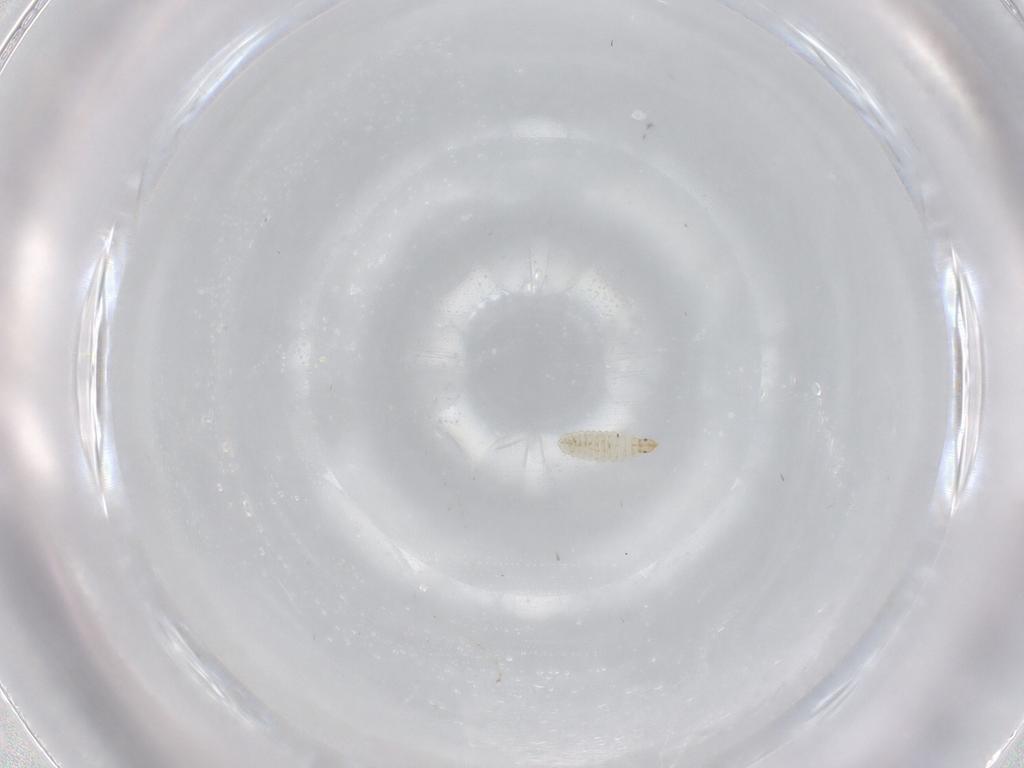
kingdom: Animalia
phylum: Arthropoda
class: Insecta
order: Diptera
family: Cecidomyiidae
